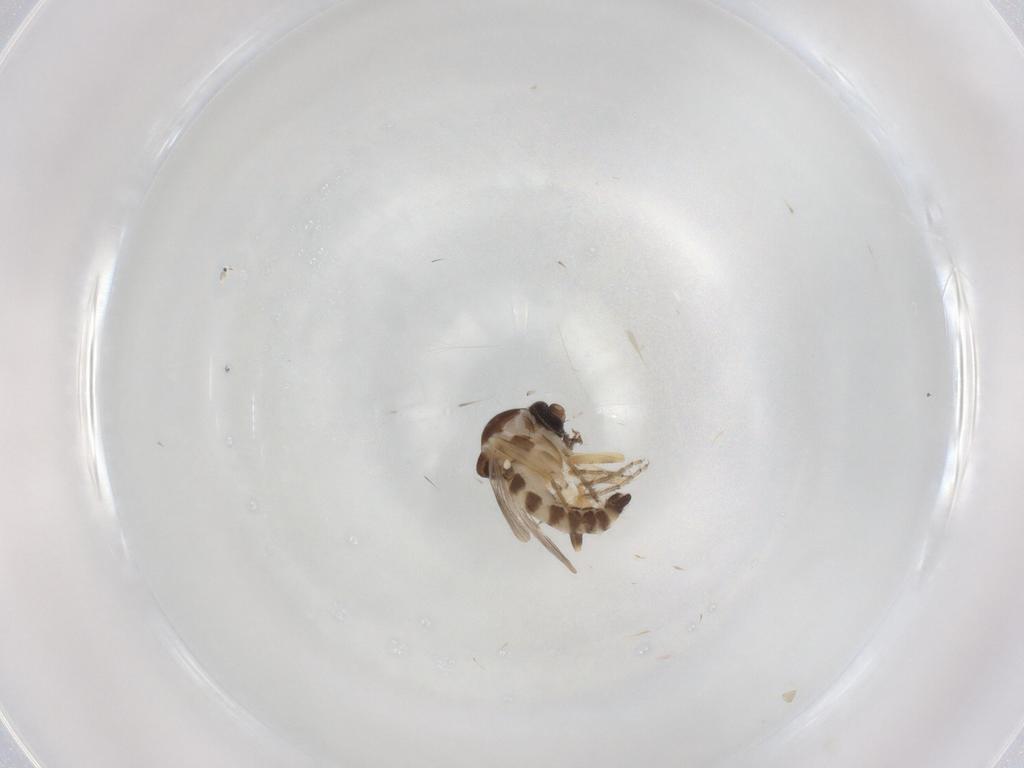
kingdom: Animalia
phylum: Arthropoda
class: Insecta
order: Diptera
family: Ceratopogonidae
